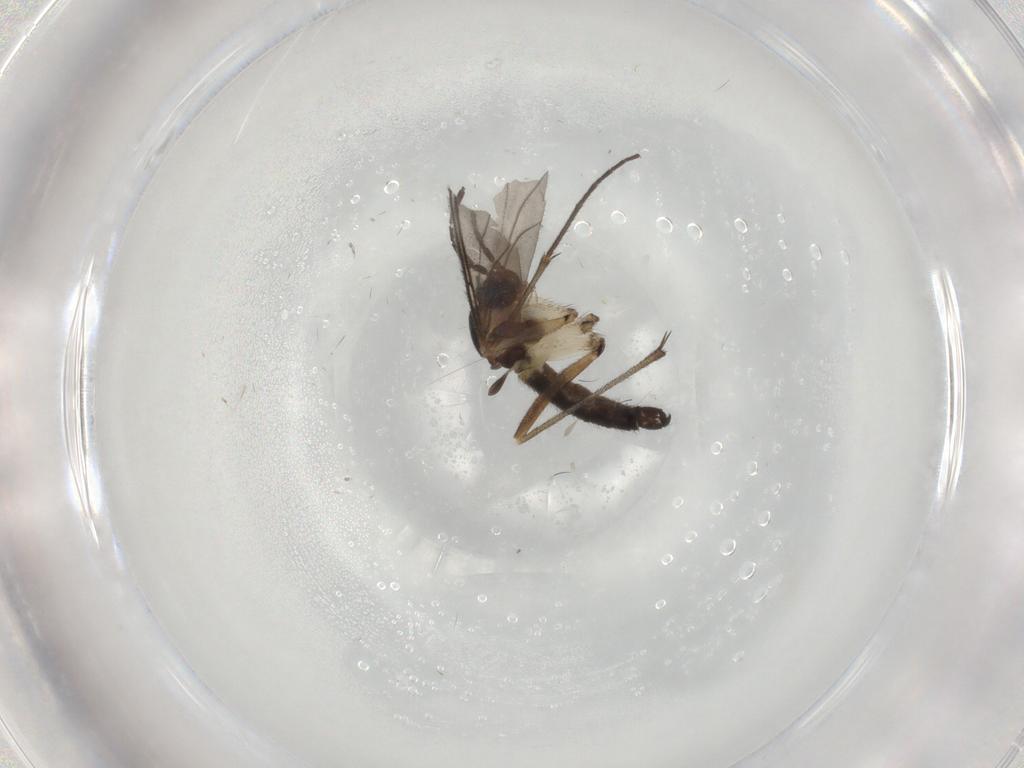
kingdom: Animalia
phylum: Arthropoda
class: Insecta
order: Diptera
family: Sciaridae
